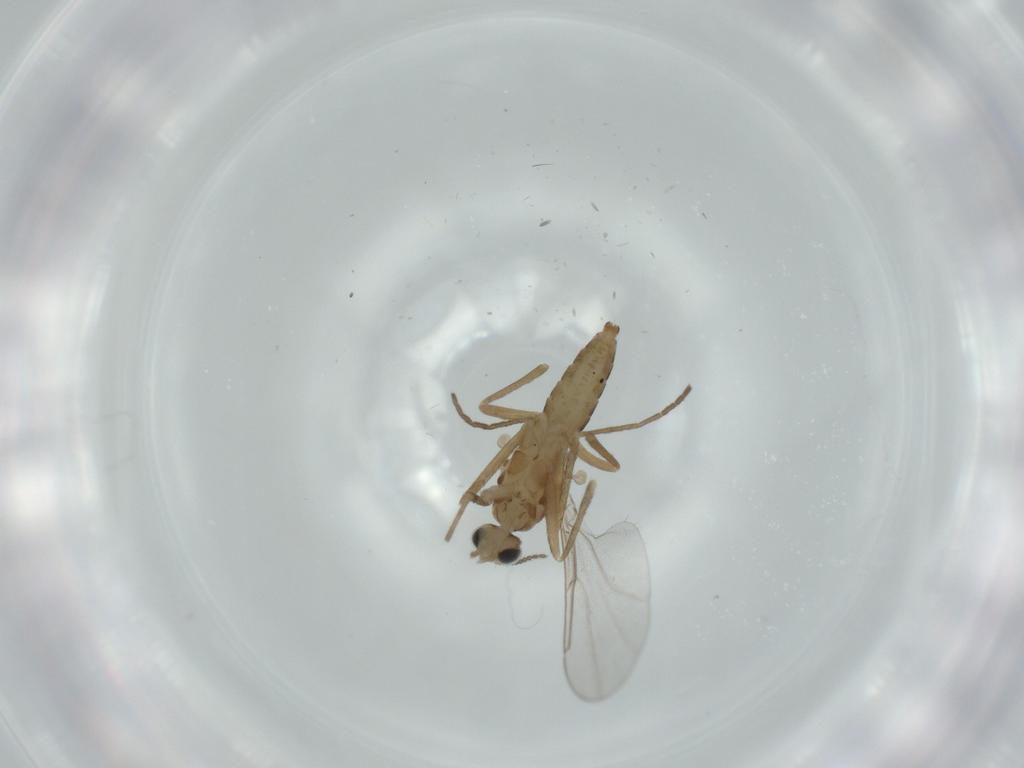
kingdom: Animalia
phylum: Arthropoda
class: Insecta
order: Diptera
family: Cecidomyiidae
